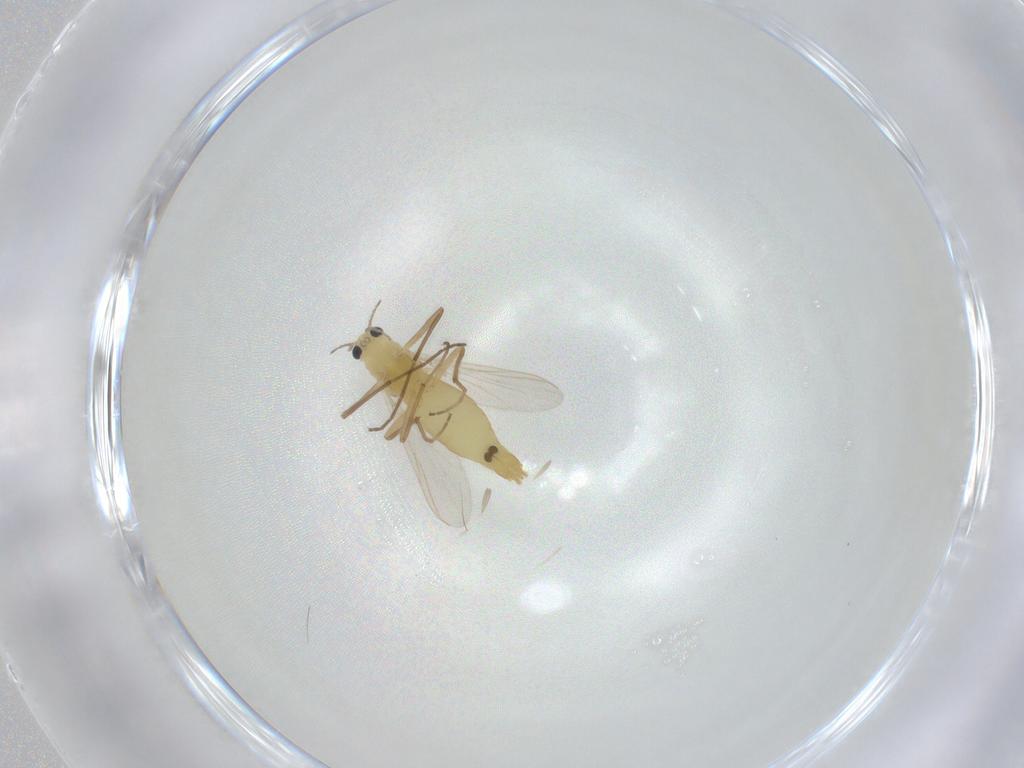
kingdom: Animalia
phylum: Arthropoda
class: Insecta
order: Diptera
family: Chironomidae
